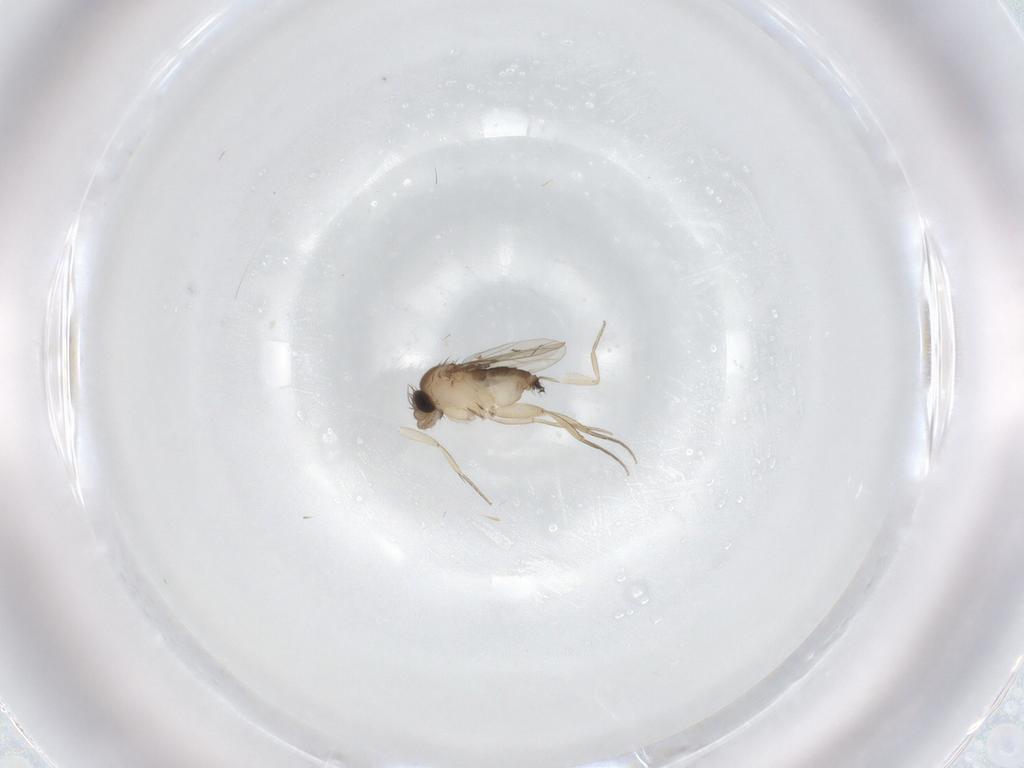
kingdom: Animalia
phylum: Arthropoda
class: Insecta
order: Diptera
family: Phoridae
